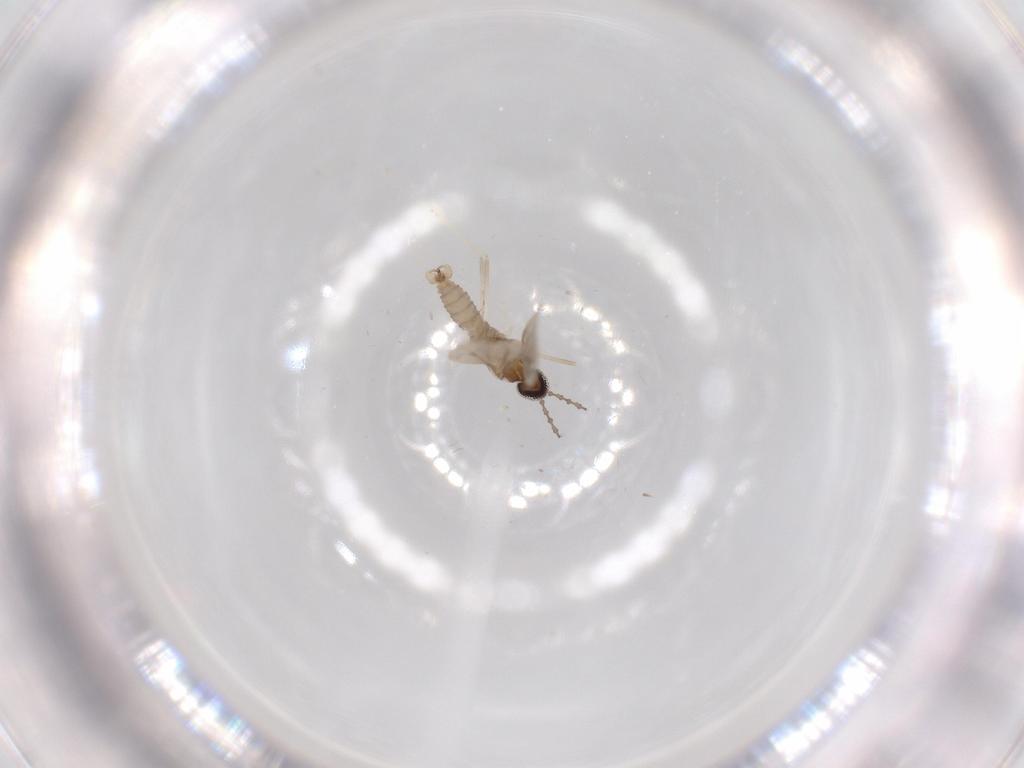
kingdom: Animalia
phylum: Arthropoda
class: Insecta
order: Diptera
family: Cecidomyiidae
